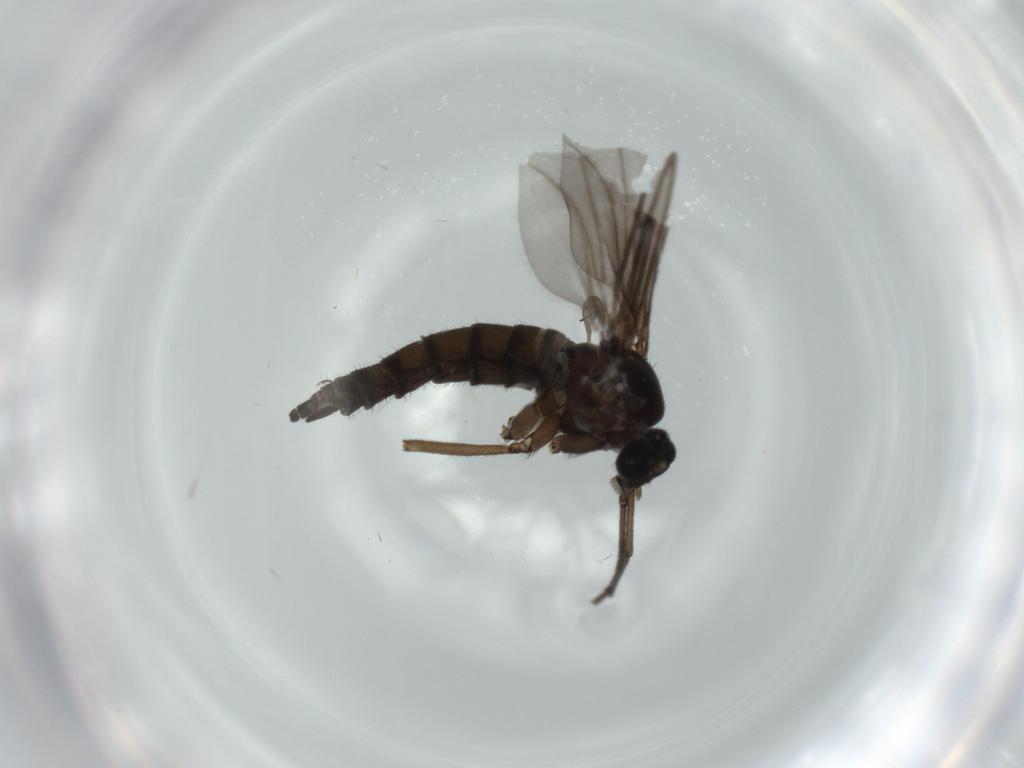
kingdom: Animalia
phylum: Arthropoda
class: Insecta
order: Diptera
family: Sciaridae
